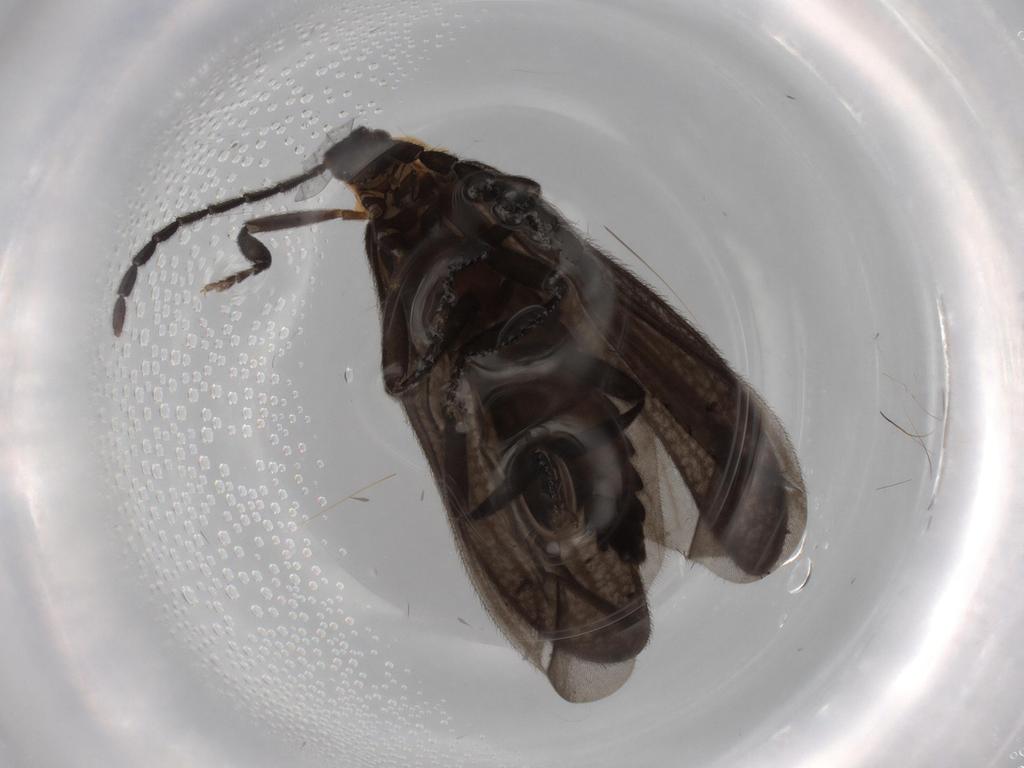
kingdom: Animalia
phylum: Arthropoda
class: Insecta
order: Coleoptera
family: Lycidae
